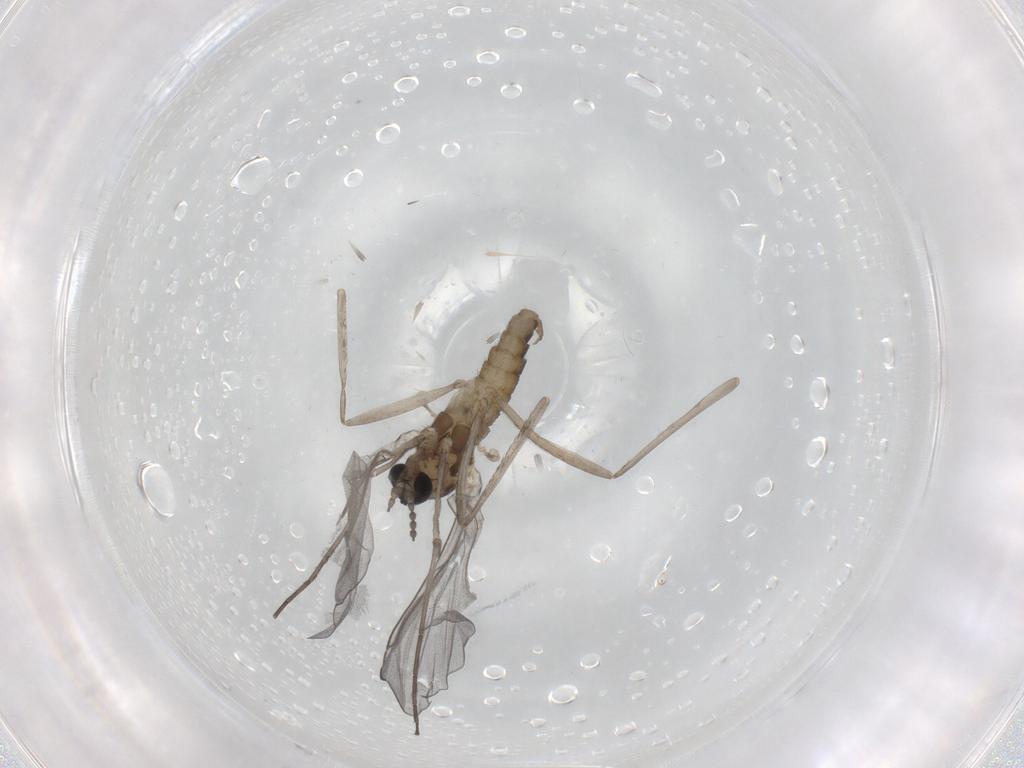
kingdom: Animalia
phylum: Arthropoda
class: Insecta
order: Diptera
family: Cecidomyiidae
